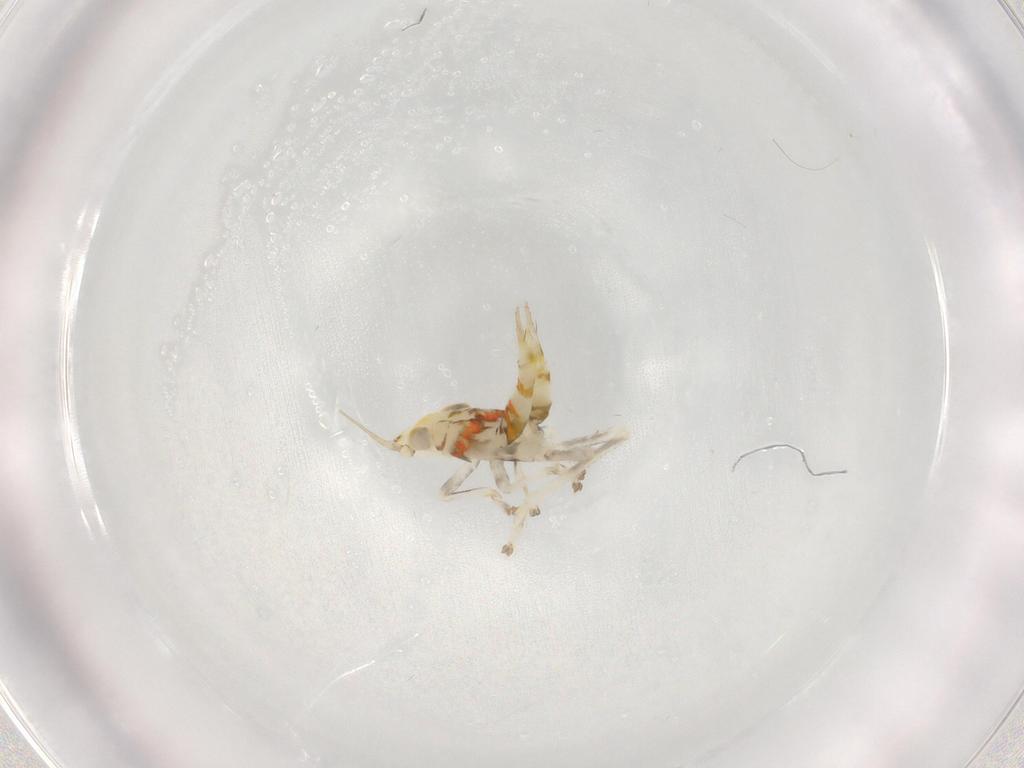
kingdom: Animalia
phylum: Arthropoda
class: Insecta
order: Hemiptera
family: Cicadellidae
